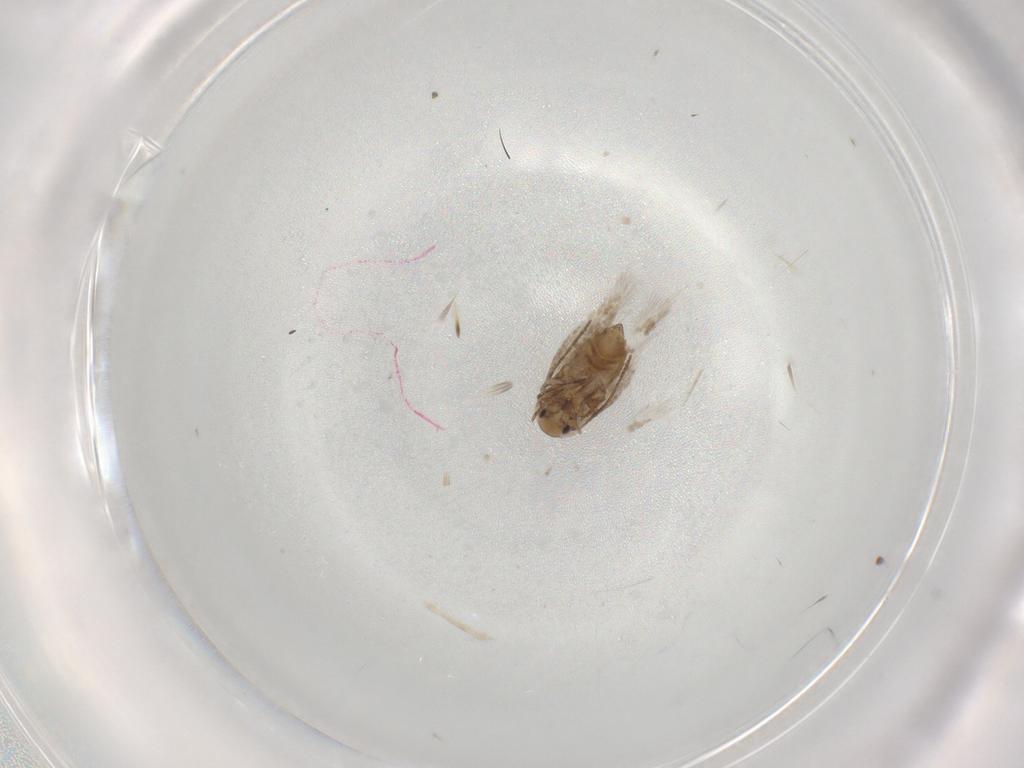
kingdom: Animalia
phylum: Arthropoda
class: Insecta
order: Lepidoptera
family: Nymphalidae
